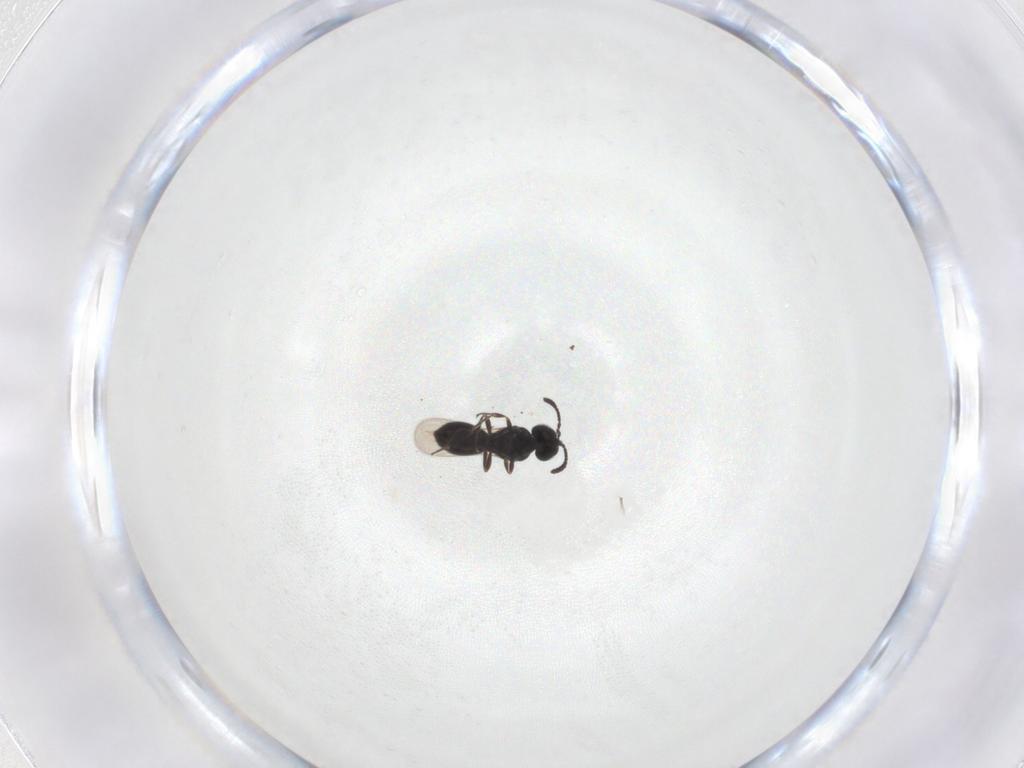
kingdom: Animalia
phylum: Arthropoda
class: Insecta
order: Hymenoptera
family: Scelionidae
